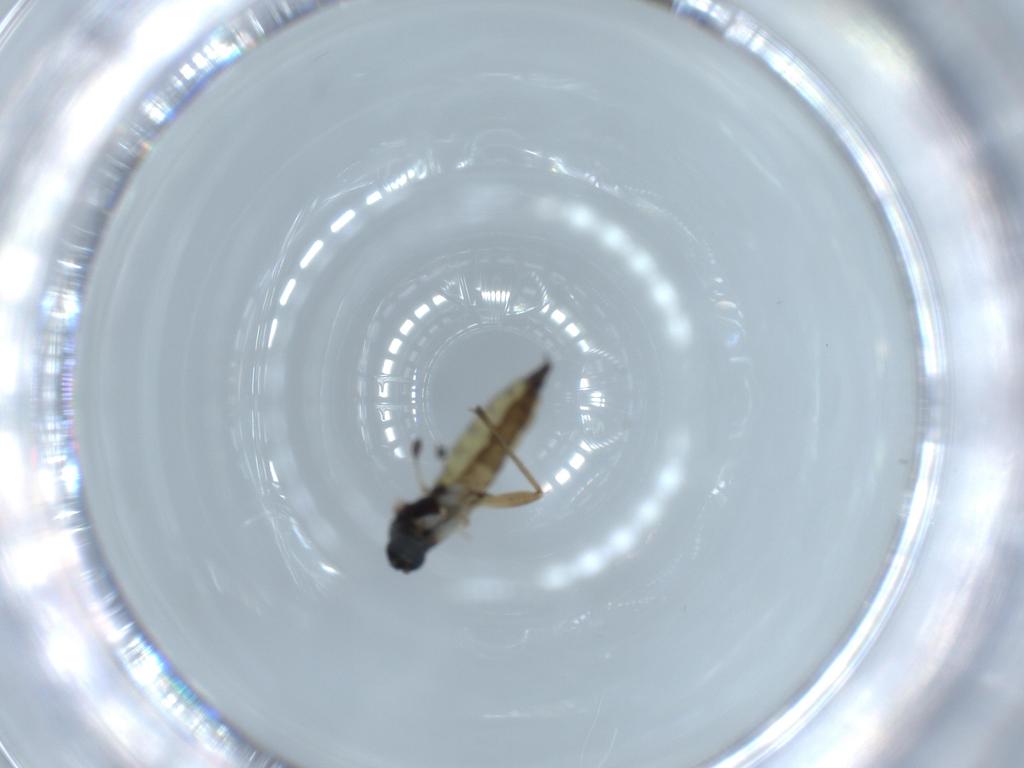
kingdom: Animalia
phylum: Arthropoda
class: Insecta
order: Diptera
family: Sciaridae
